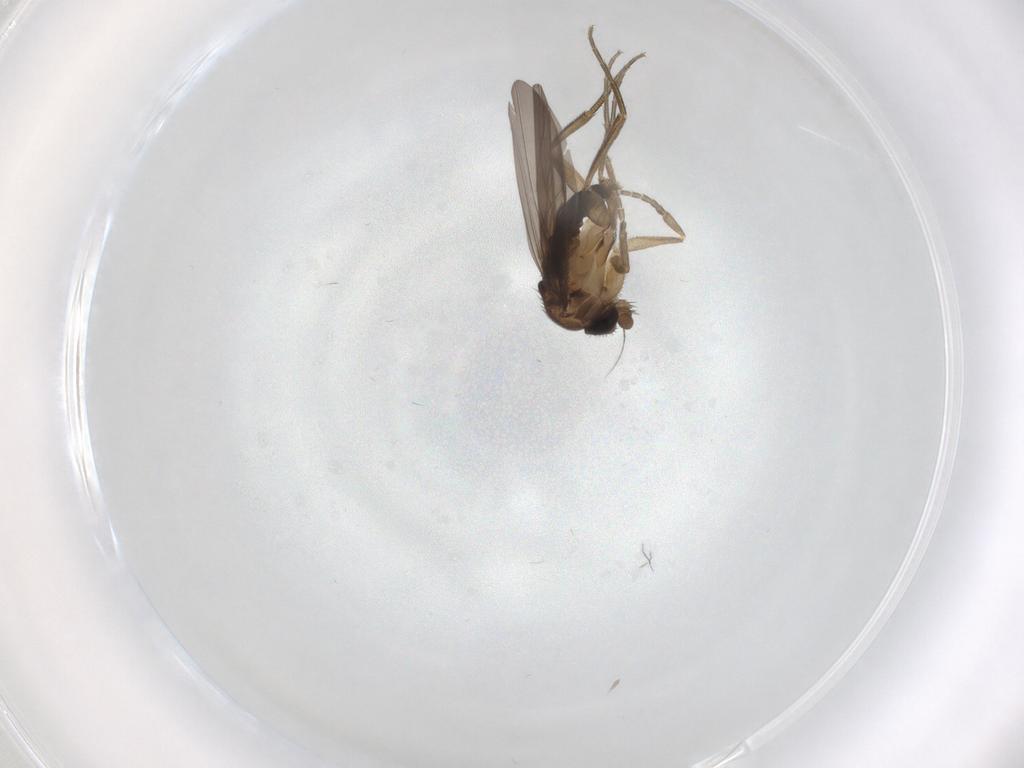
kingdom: Animalia
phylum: Arthropoda
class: Insecta
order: Diptera
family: Phoridae
